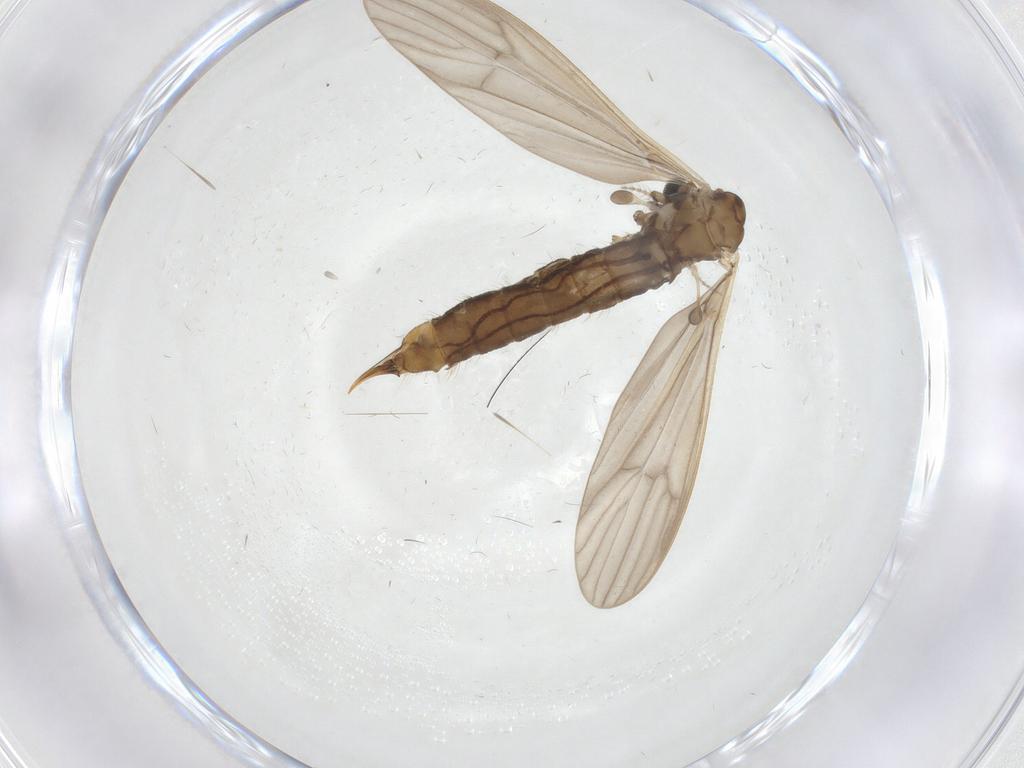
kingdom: Animalia
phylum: Arthropoda
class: Insecta
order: Diptera
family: Limoniidae
